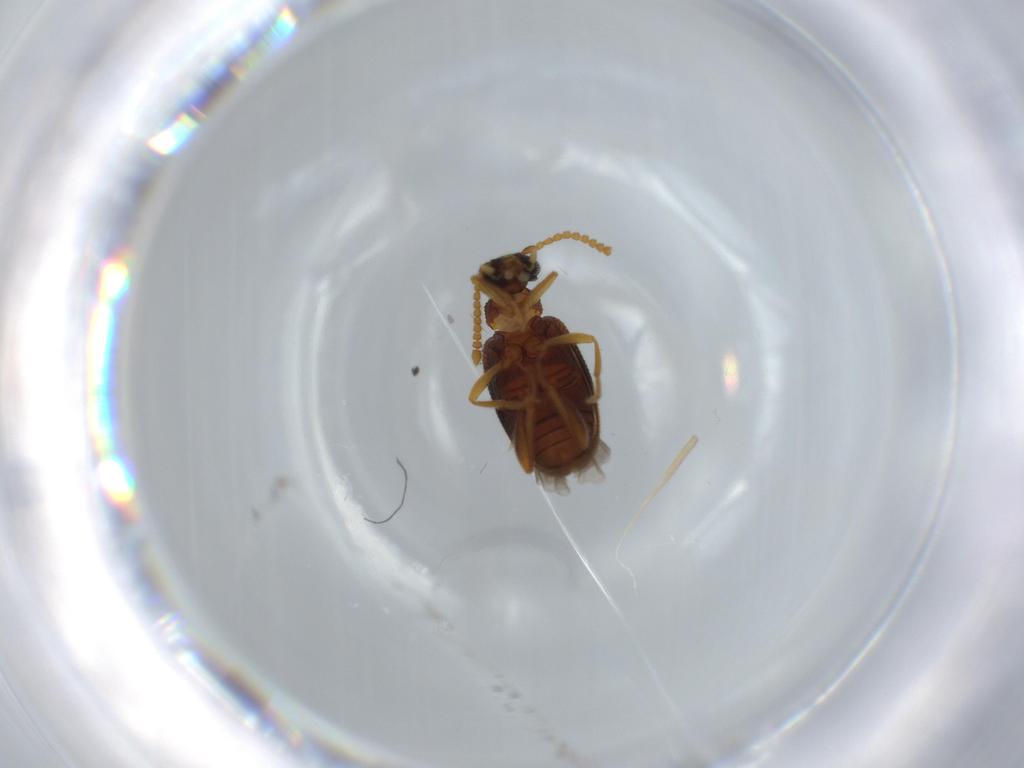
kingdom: Animalia
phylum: Arthropoda
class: Insecta
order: Coleoptera
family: Aderidae
